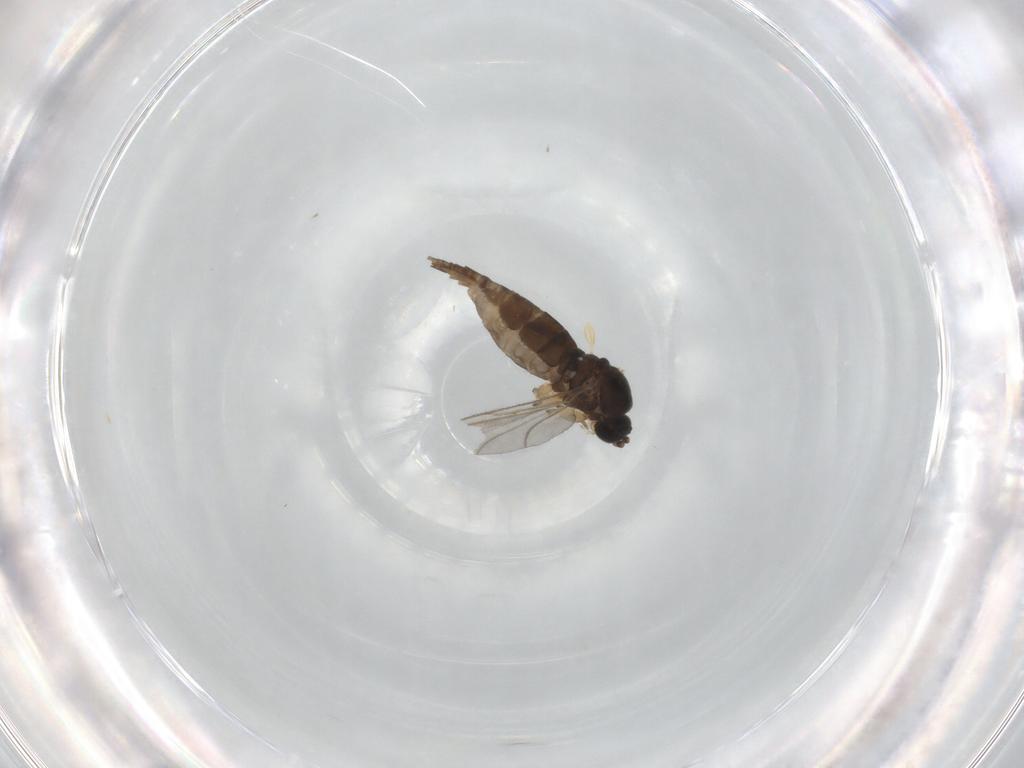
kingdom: Animalia
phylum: Arthropoda
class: Insecta
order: Diptera
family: Sciaridae
